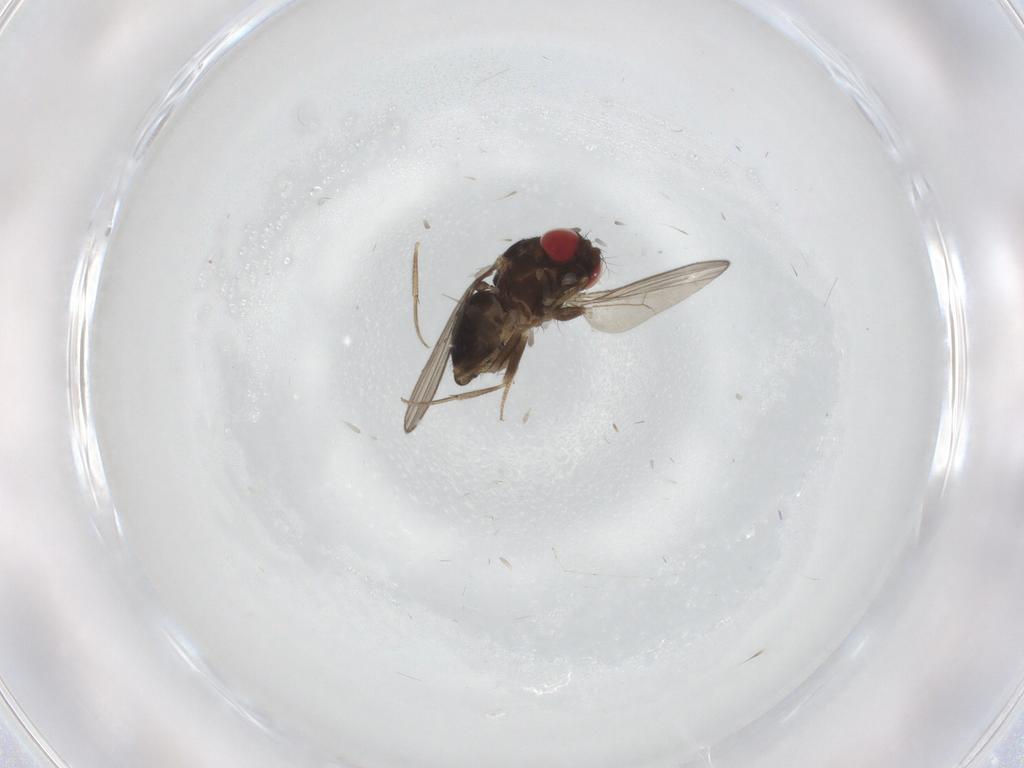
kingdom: Animalia
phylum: Arthropoda
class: Insecta
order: Diptera
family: Drosophilidae
